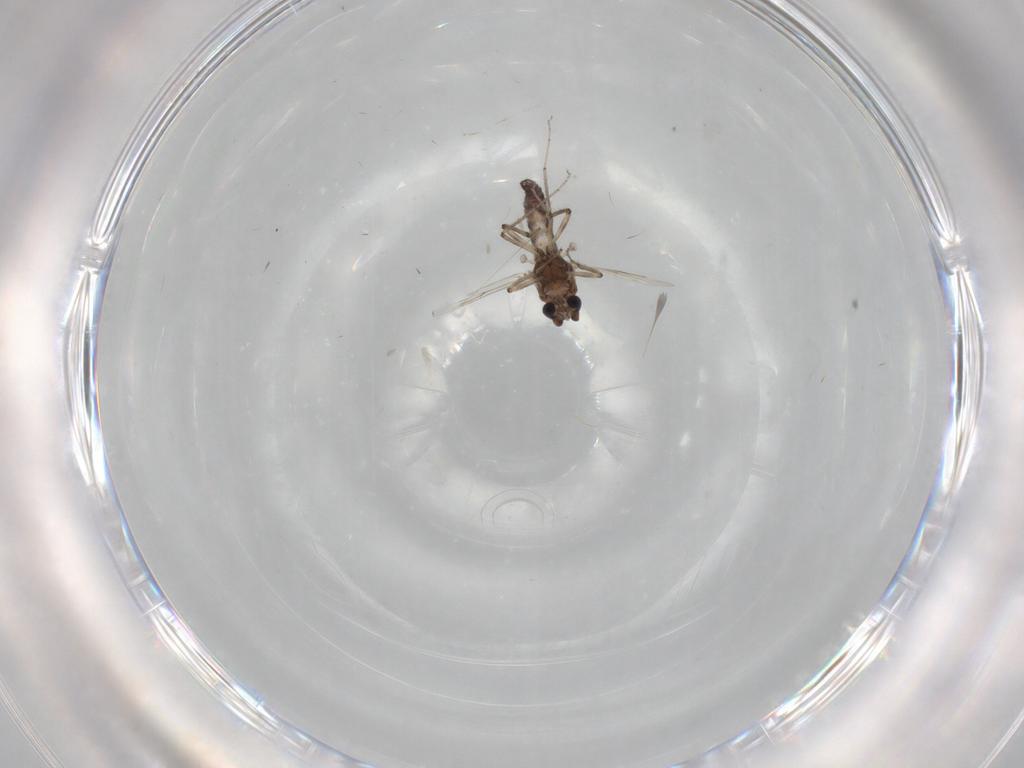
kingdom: Animalia
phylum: Arthropoda
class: Insecta
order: Diptera
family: Ceratopogonidae
